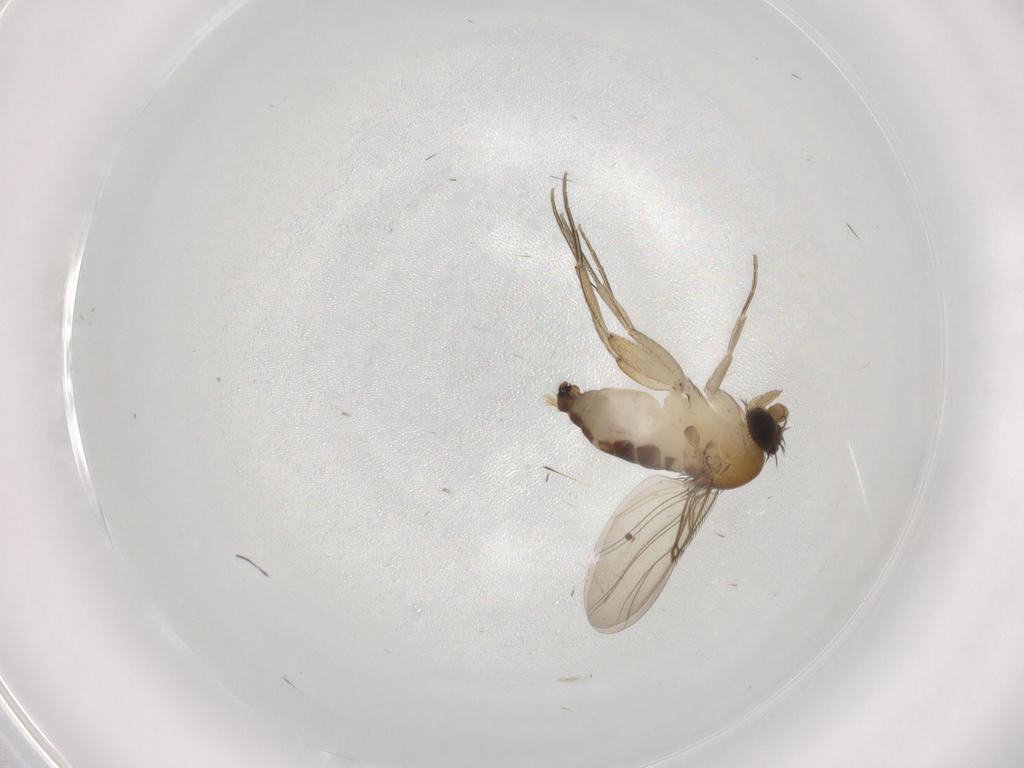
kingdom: Animalia
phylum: Arthropoda
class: Insecta
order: Diptera
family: Phoridae
